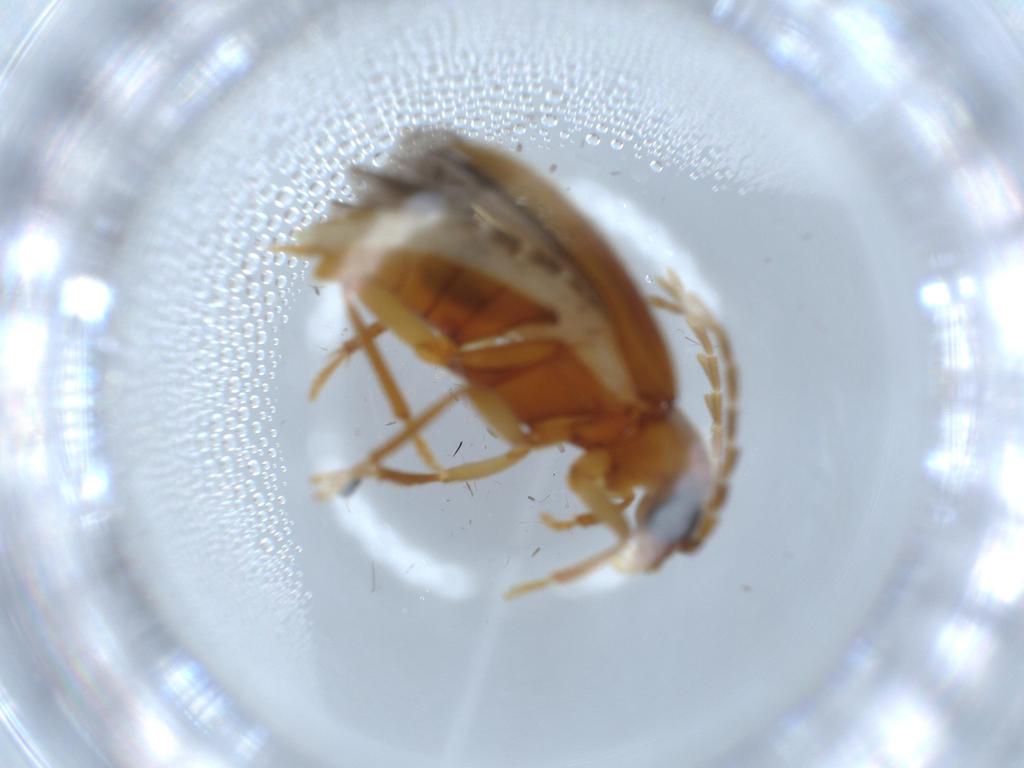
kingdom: Animalia
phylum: Arthropoda
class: Insecta
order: Coleoptera
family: Ptilodactylidae
